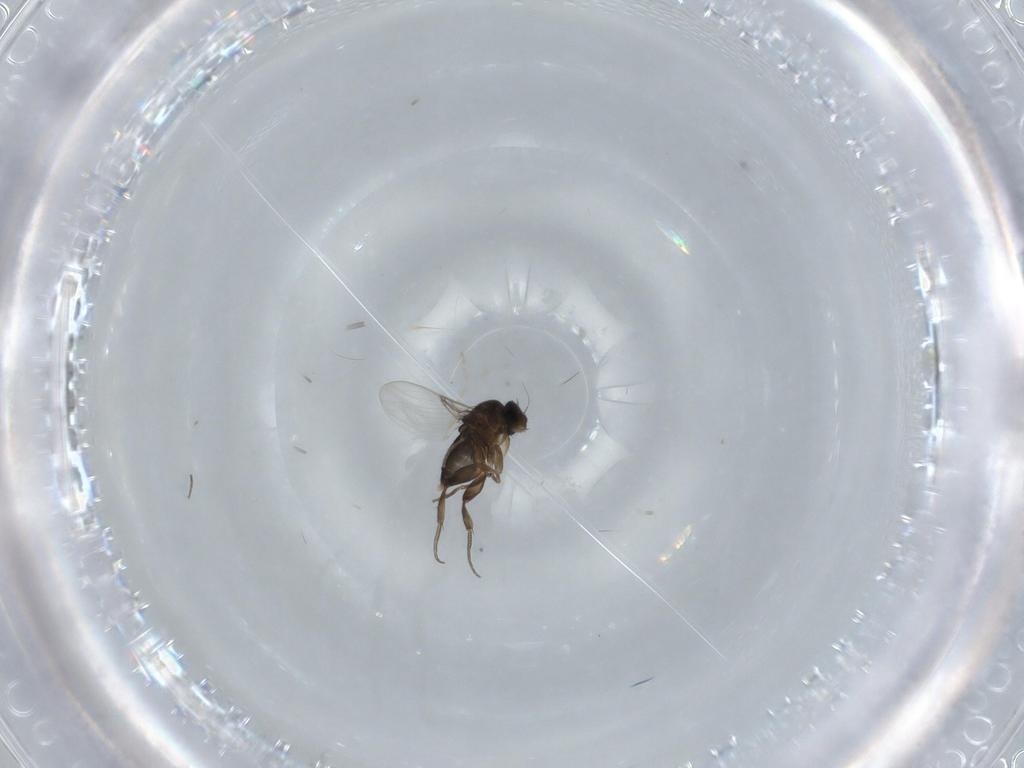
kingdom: Animalia
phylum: Arthropoda
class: Insecta
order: Diptera
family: Phoridae
